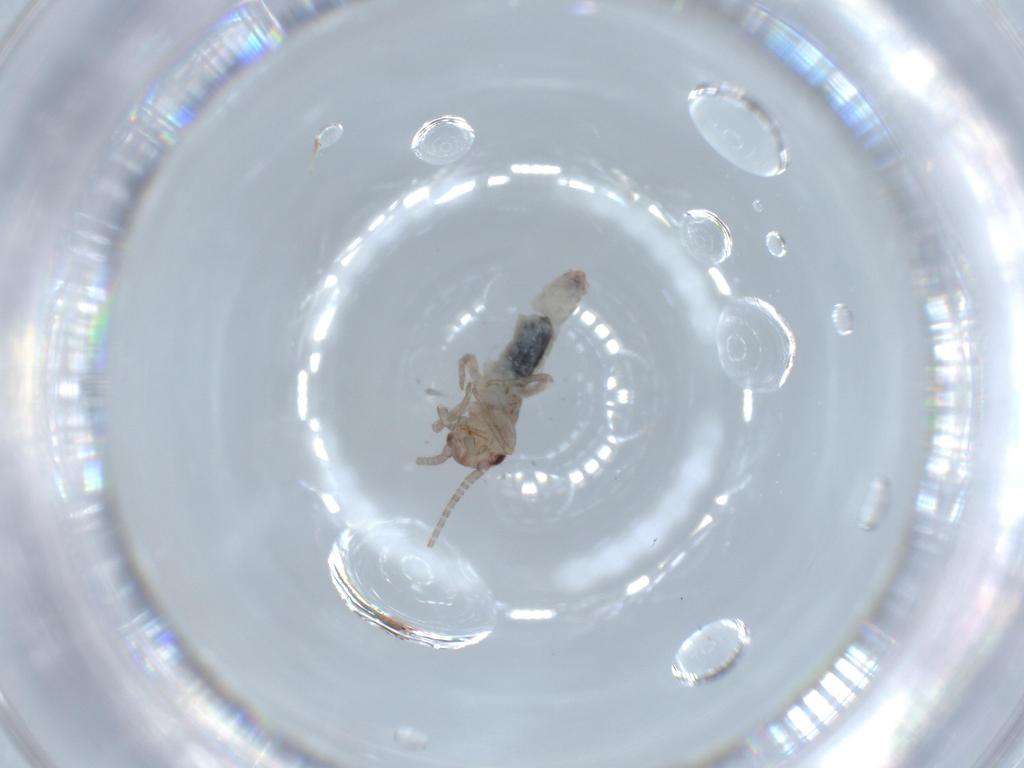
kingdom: Animalia
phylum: Arthropoda
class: Insecta
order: Orthoptera
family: Mogoplistidae
